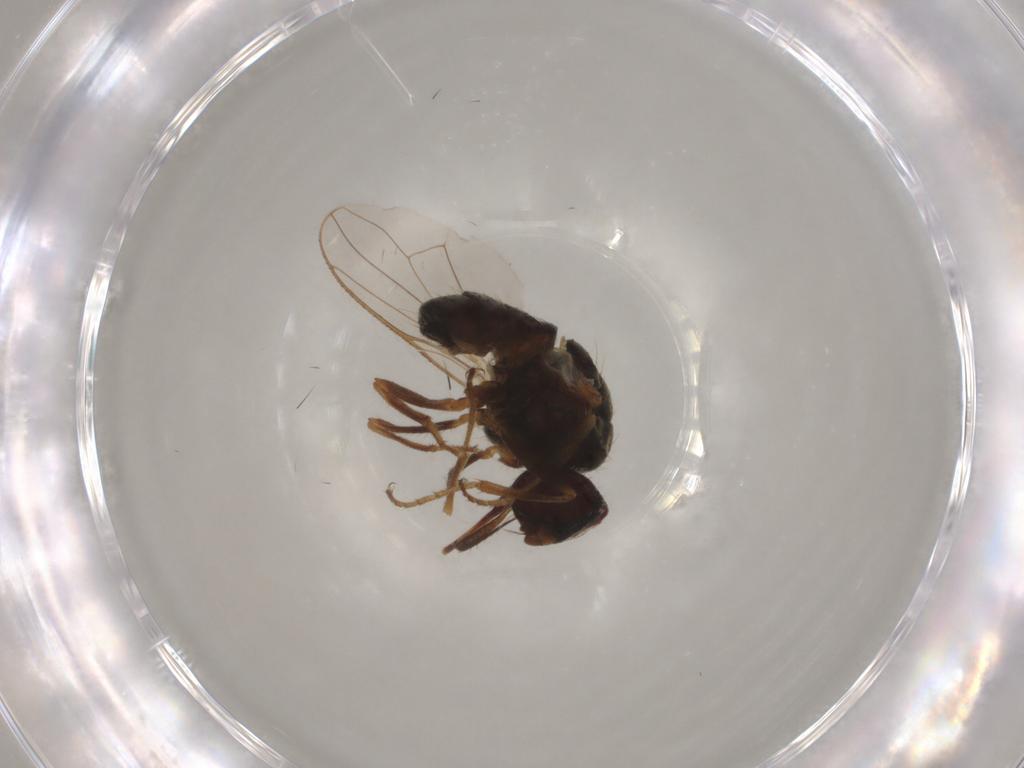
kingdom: Animalia
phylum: Arthropoda
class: Insecta
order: Diptera
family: Muscidae
